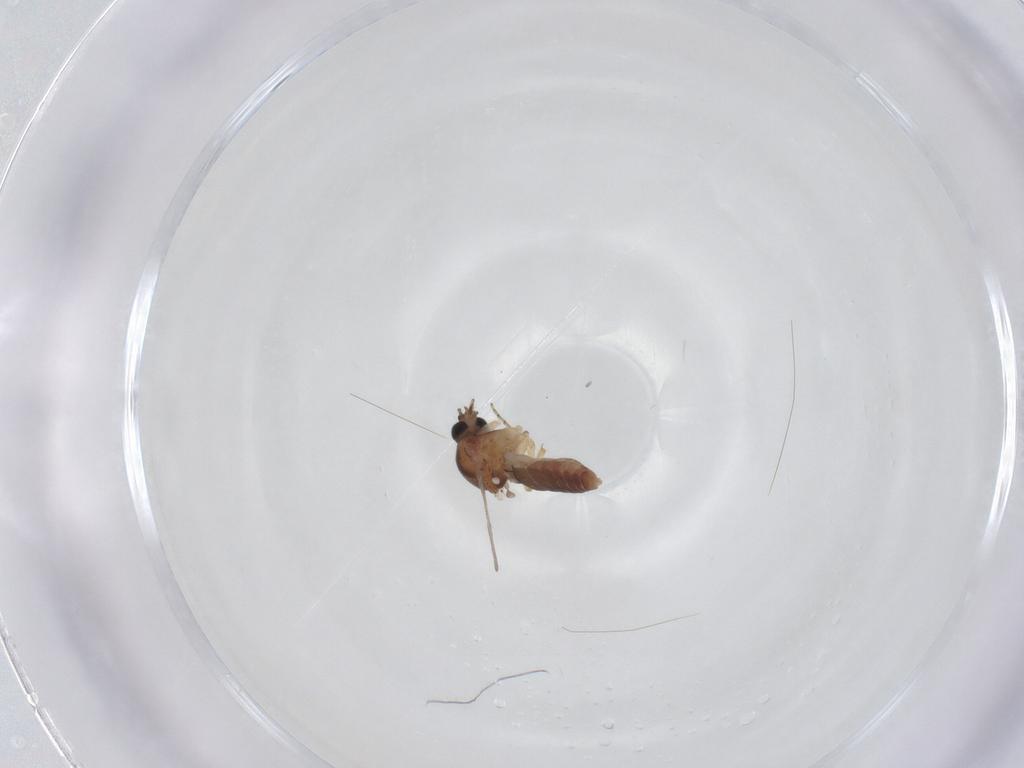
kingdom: Animalia
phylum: Arthropoda
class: Insecta
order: Diptera
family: Ceratopogonidae
